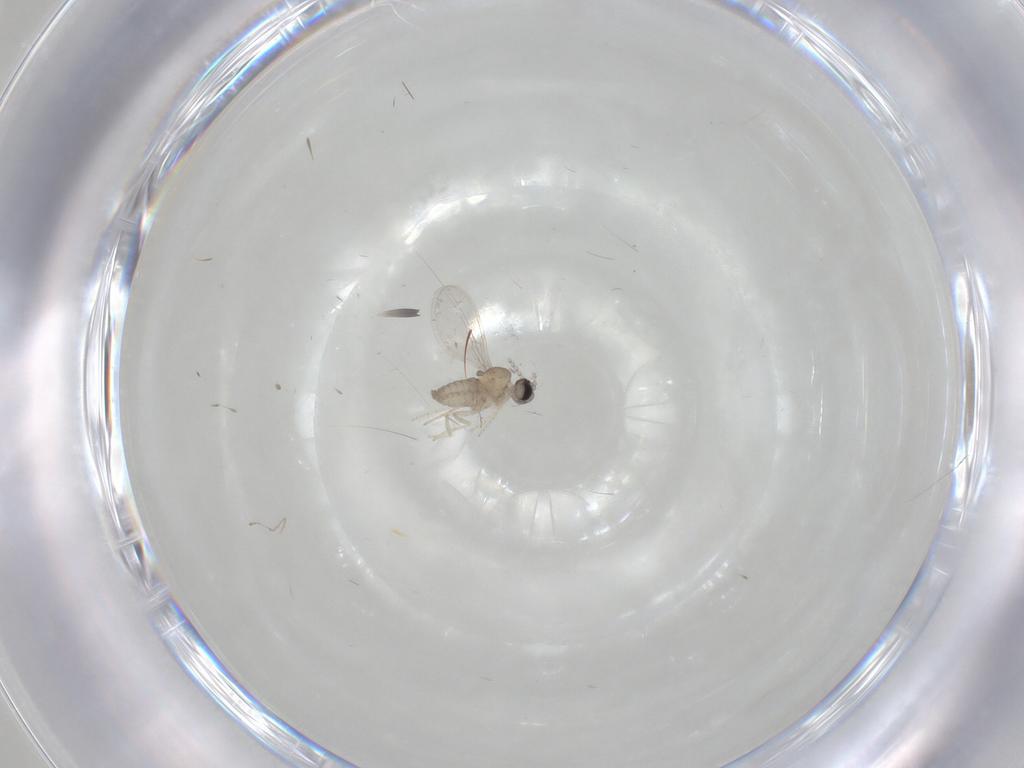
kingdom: Animalia
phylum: Arthropoda
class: Insecta
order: Diptera
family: Cecidomyiidae
